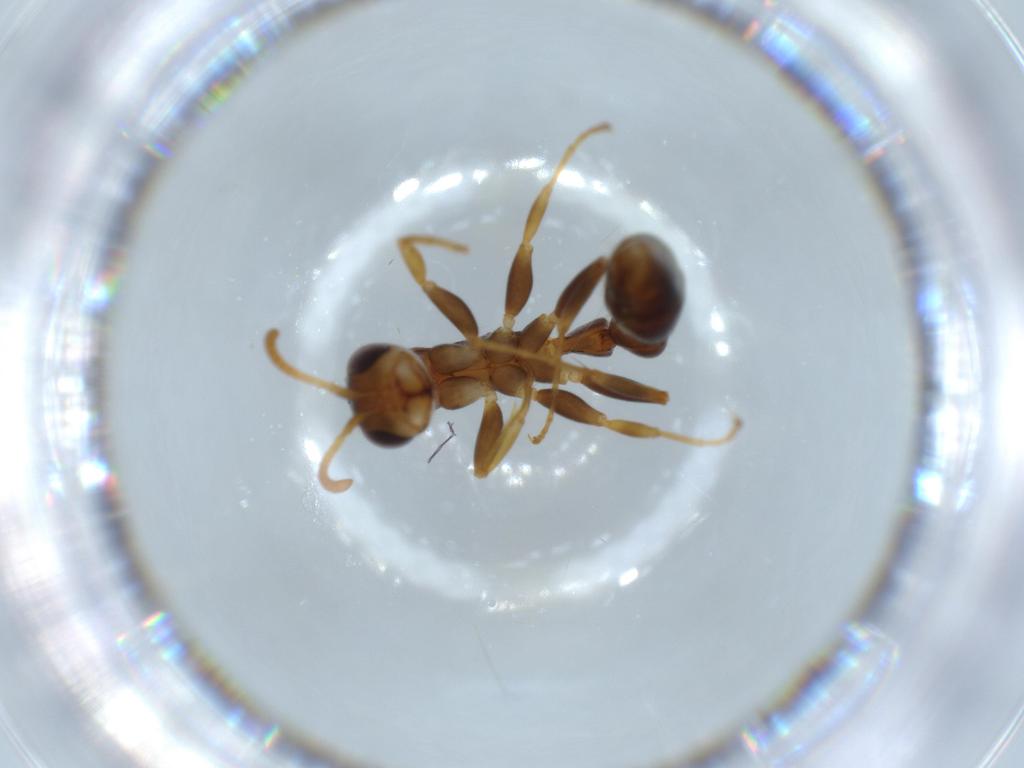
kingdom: Animalia
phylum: Arthropoda
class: Insecta
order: Hymenoptera
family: Formicidae
